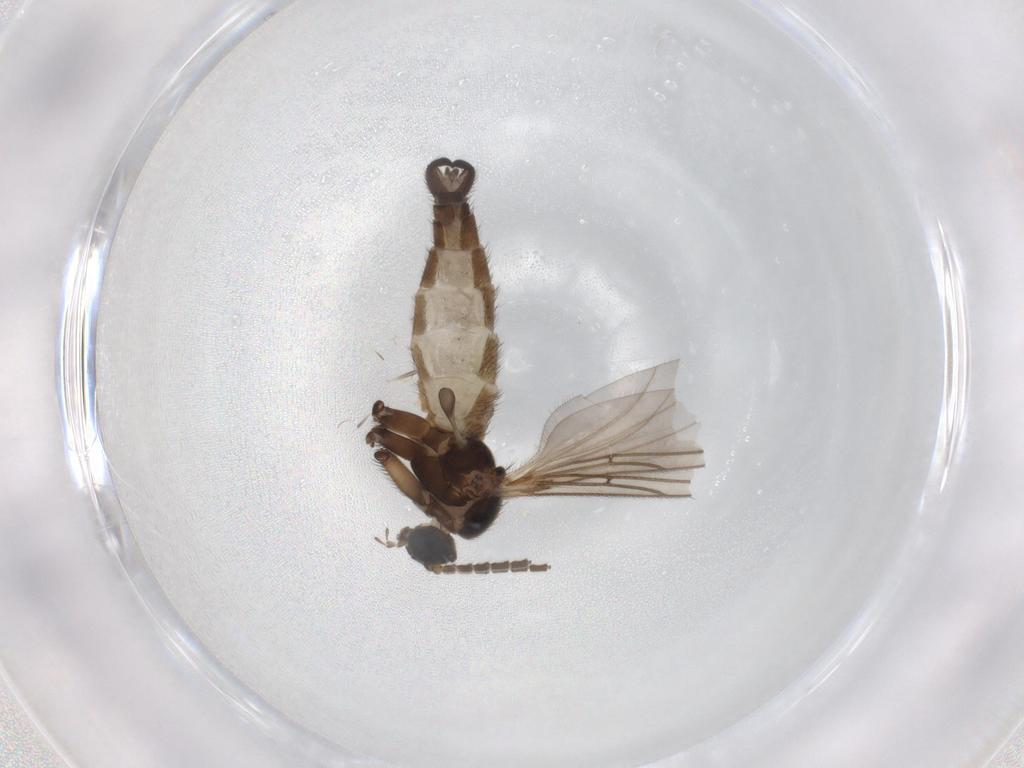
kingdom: Animalia
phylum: Arthropoda
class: Insecta
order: Diptera
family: Sciaridae
